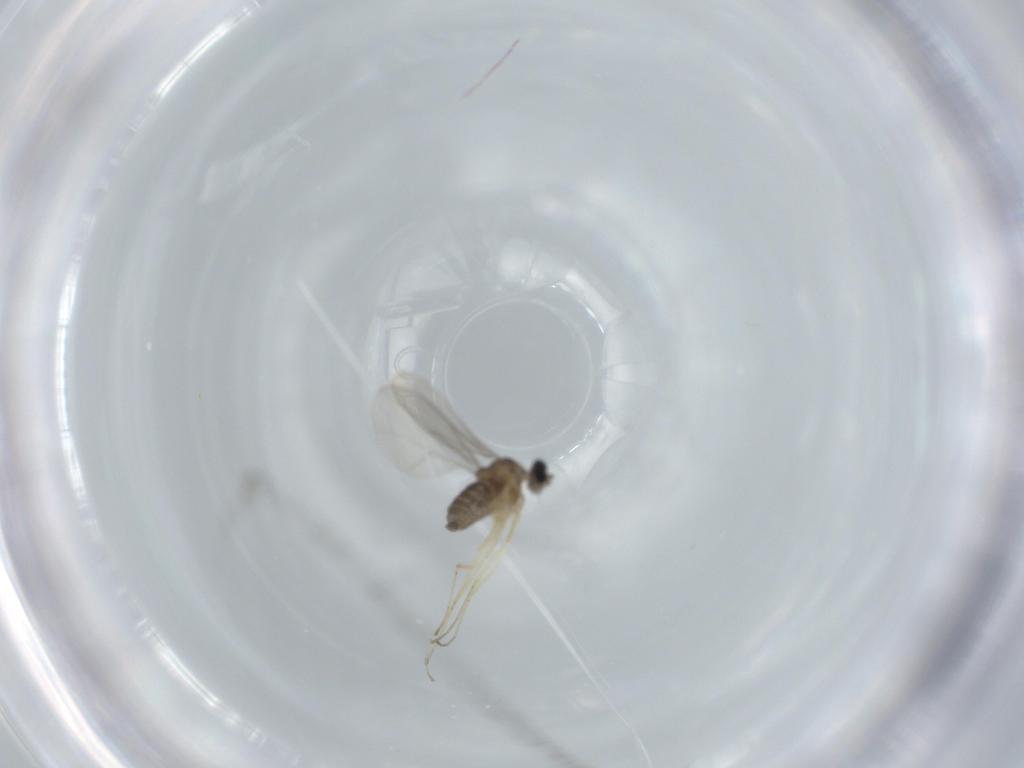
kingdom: Animalia
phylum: Arthropoda
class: Insecta
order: Diptera
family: Cecidomyiidae
